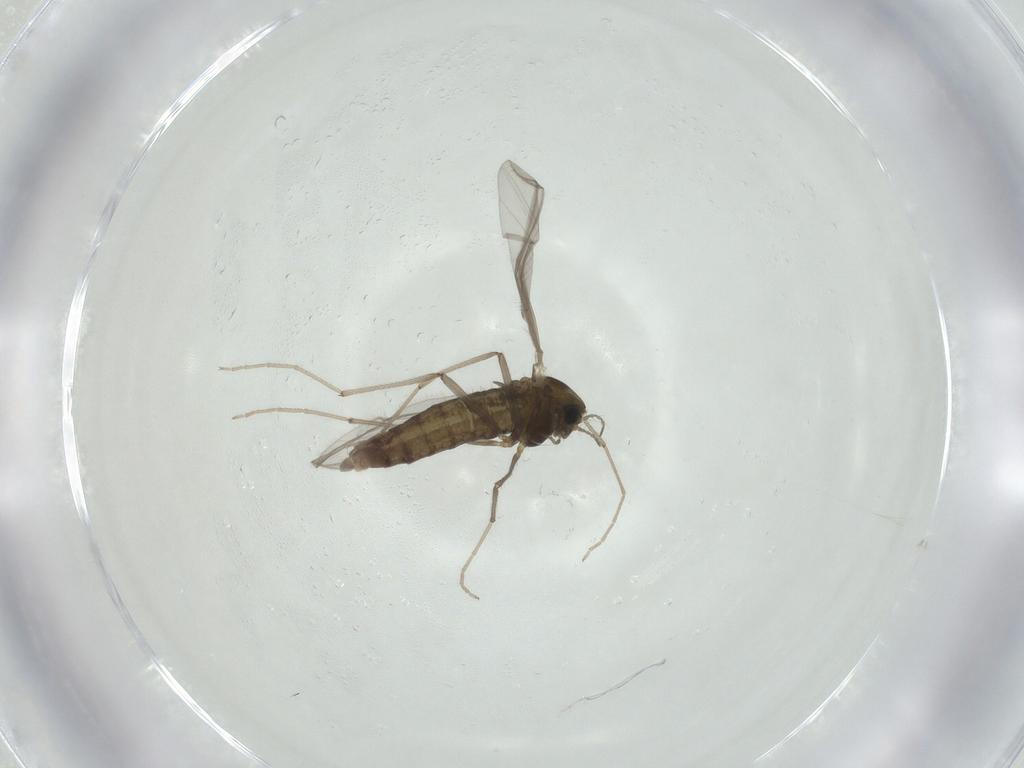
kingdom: Animalia
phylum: Arthropoda
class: Insecta
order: Diptera
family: Chironomidae
